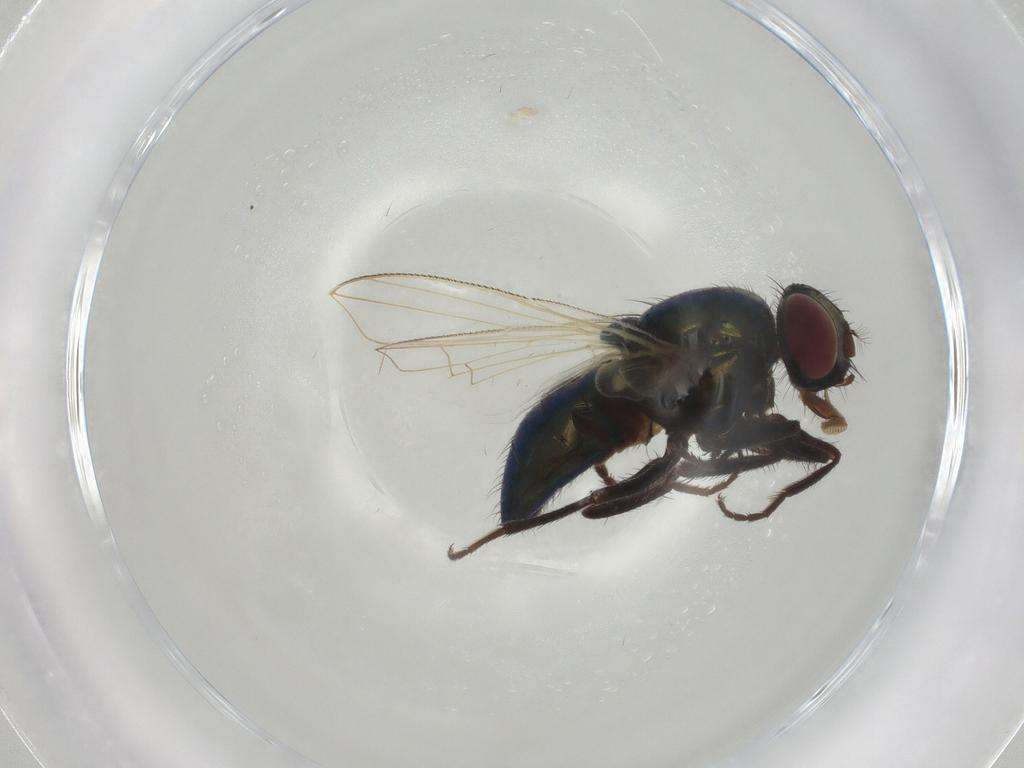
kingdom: Animalia
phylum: Arthropoda
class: Insecta
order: Diptera
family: Muscidae
